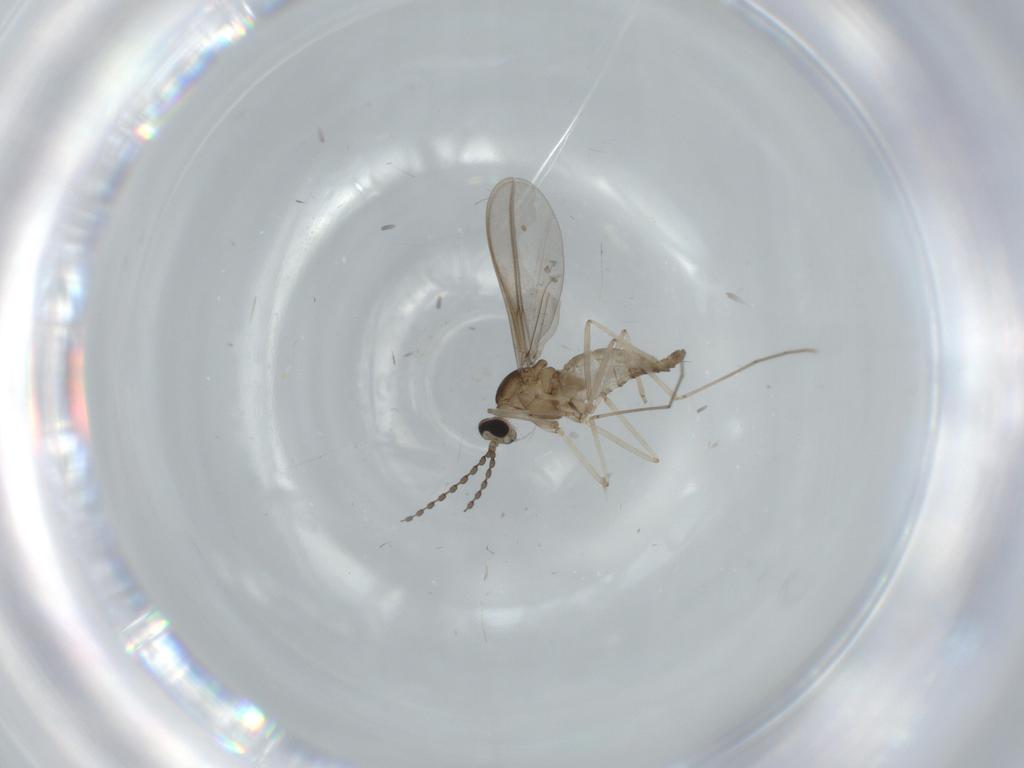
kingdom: Animalia
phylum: Arthropoda
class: Insecta
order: Diptera
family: Cecidomyiidae
